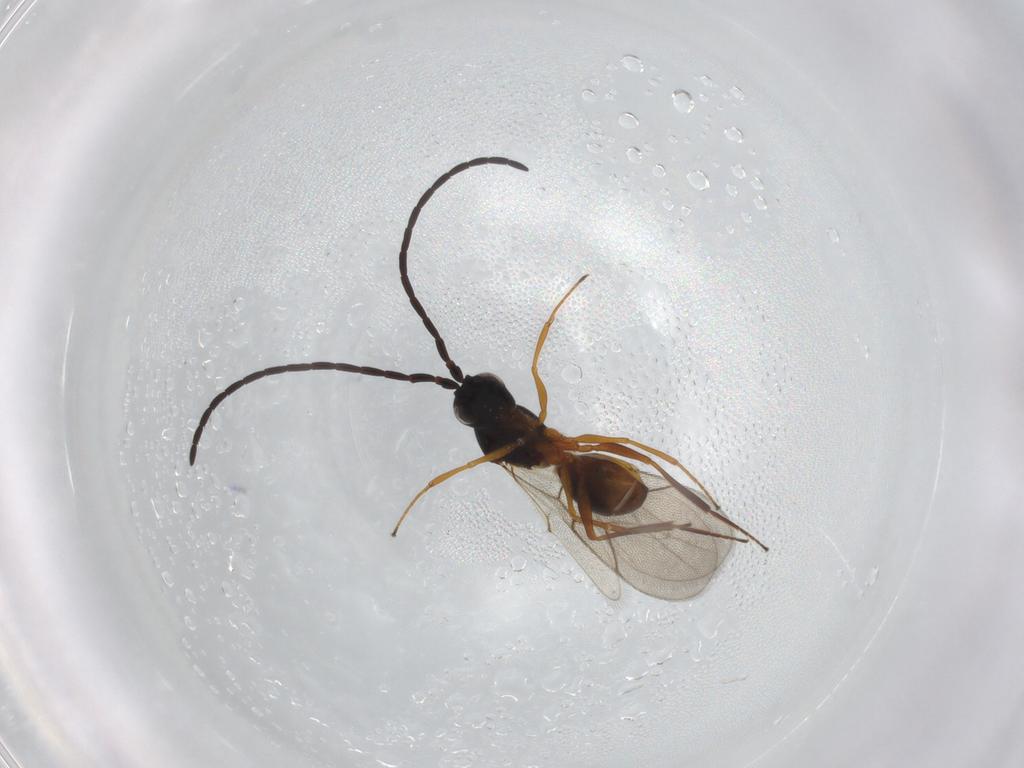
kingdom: Animalia
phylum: Arthropoda
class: Insecta
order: Hymenoptera
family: Figitidae
